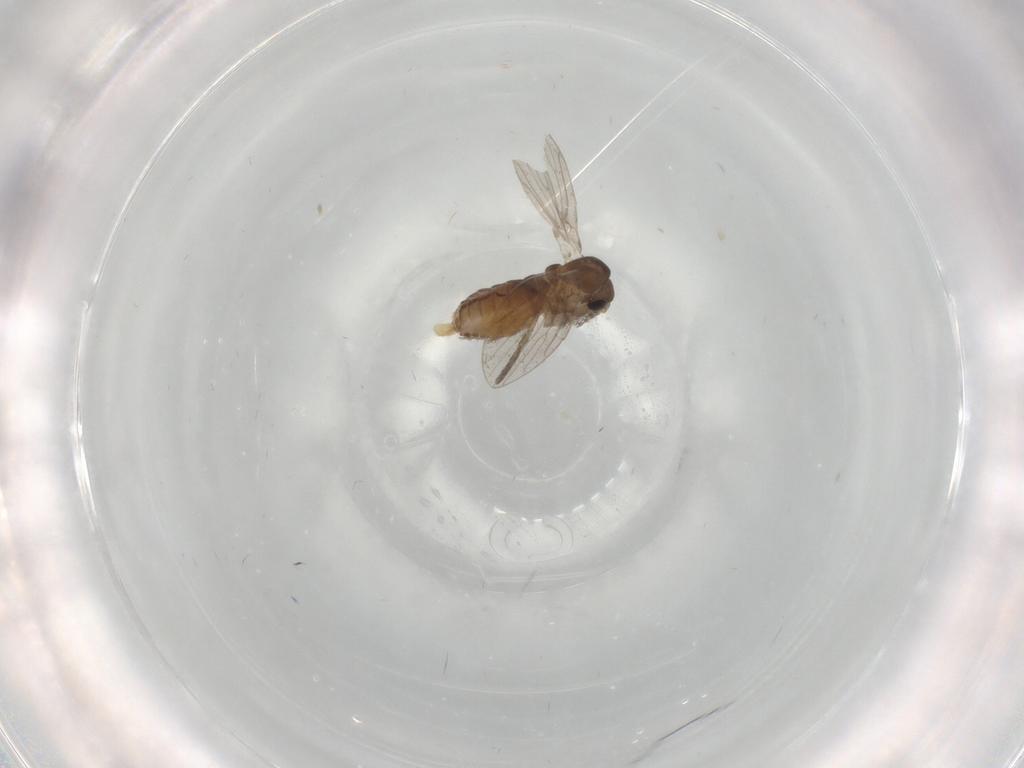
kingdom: Animalia
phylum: Arthropoda
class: Insecta
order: Diptera
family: Psychodidae
